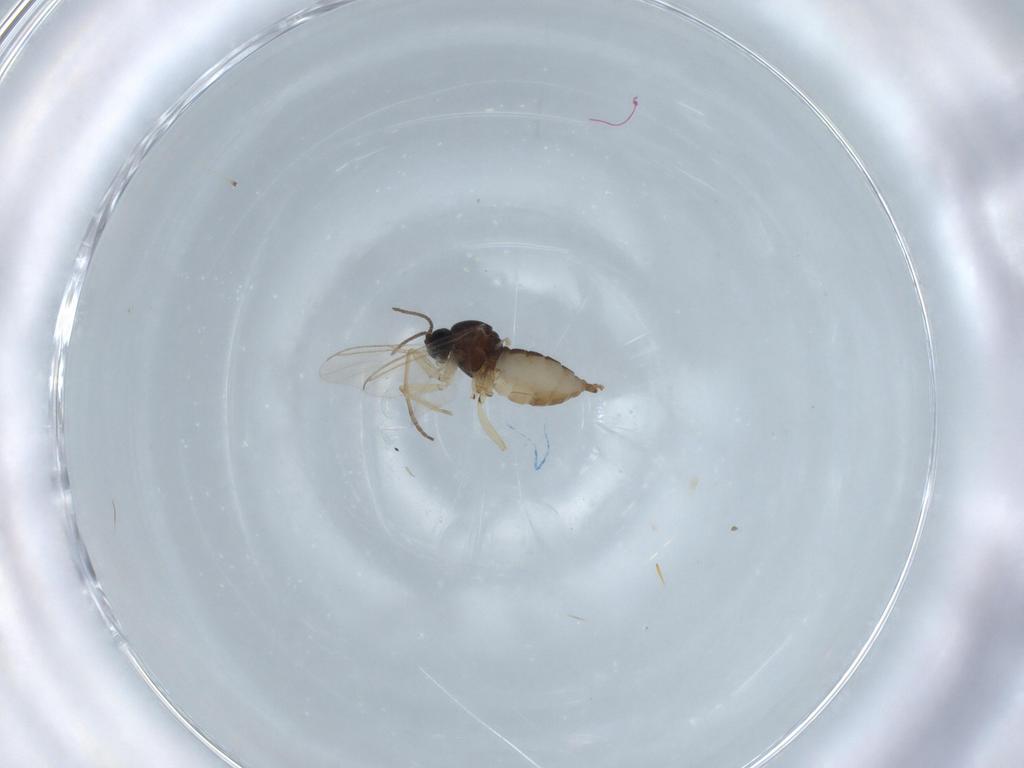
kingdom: Animalia
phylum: Arthropoda
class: Insecta
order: Diptera
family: Sciaridae
